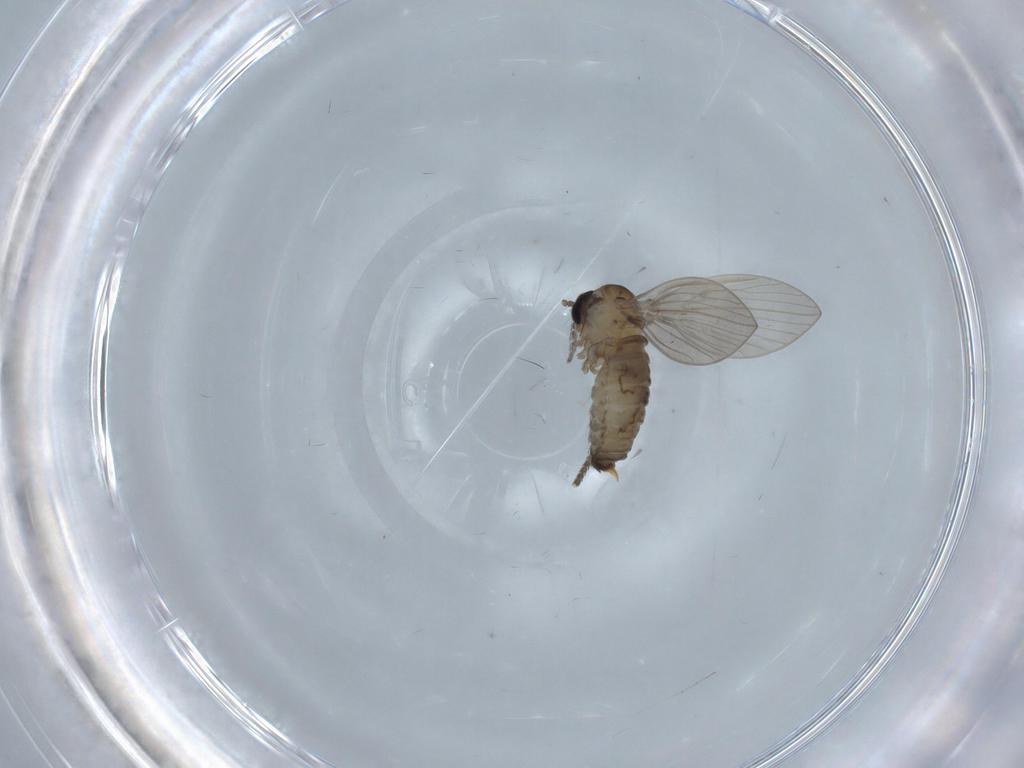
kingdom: Animalia
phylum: Arthropoda
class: Insecta
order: Diptera
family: Psychodidae
